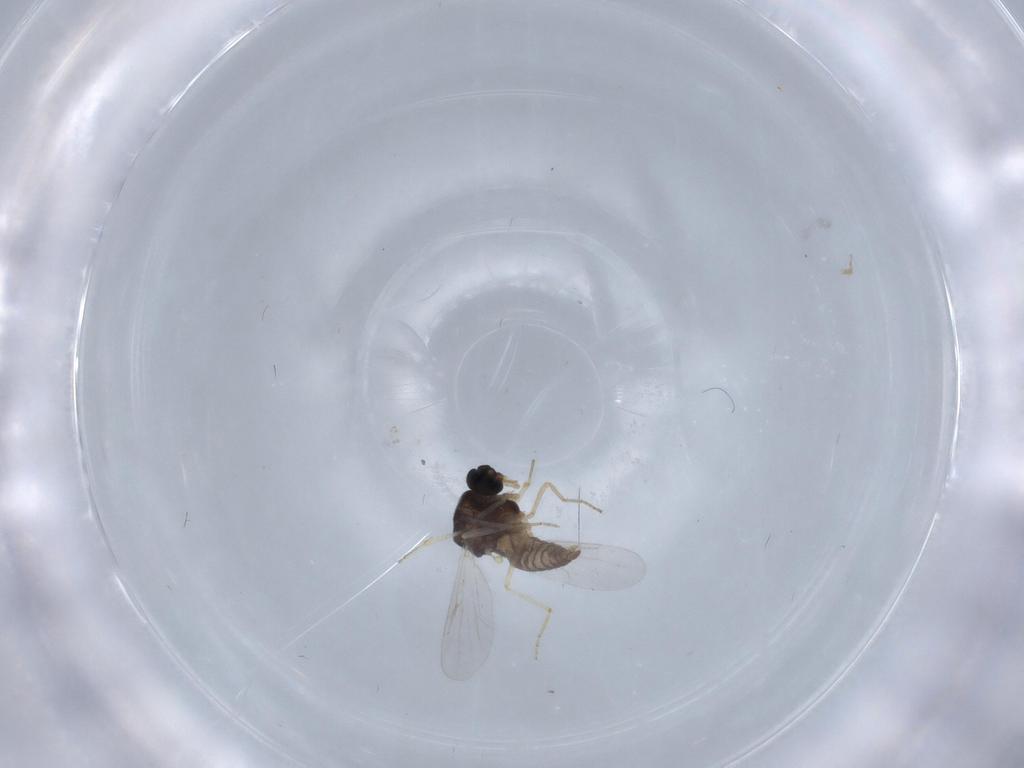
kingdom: Animalia
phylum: Arthropoda
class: Insecta
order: Diptera
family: Ceratopogonidae
